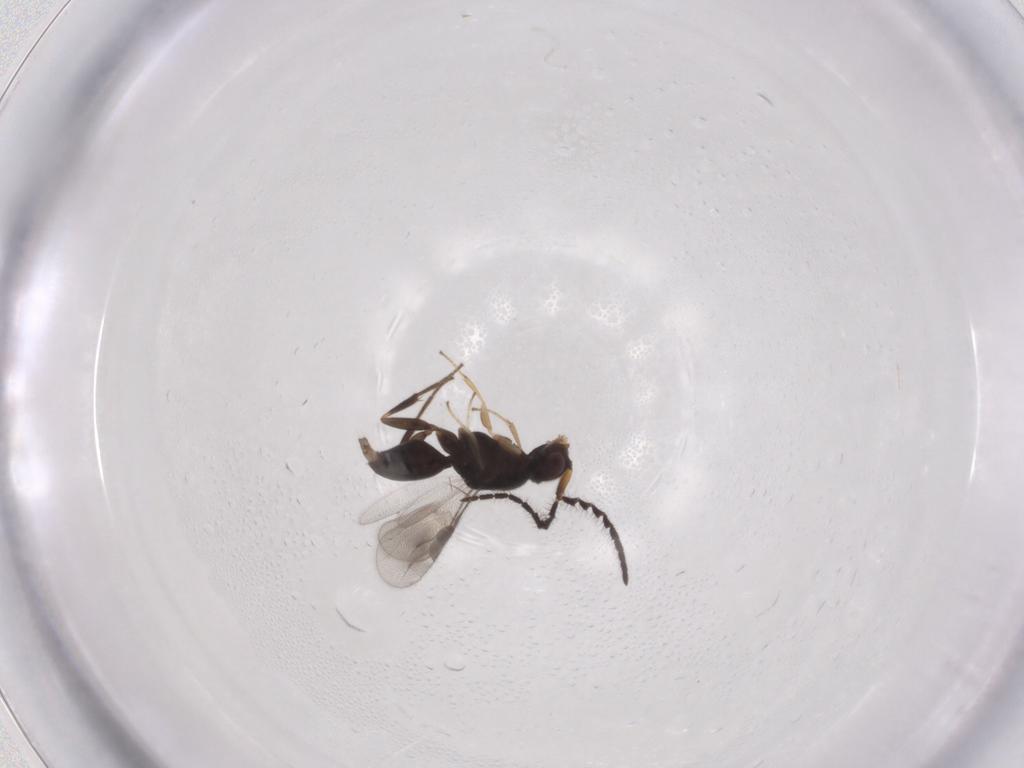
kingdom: Animalia
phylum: Arthropoda
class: Insecta
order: Hymenoptera
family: Megaspilidae
